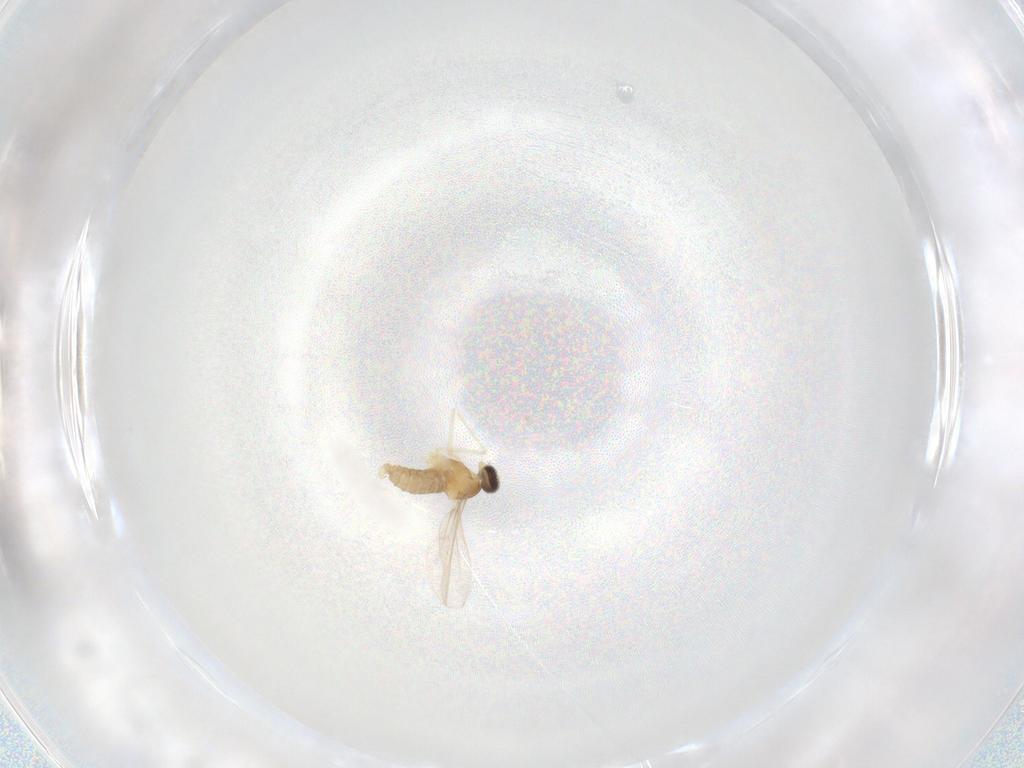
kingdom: Animalia
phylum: Arthropoda
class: Insecta
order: Diptera
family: Cecidomyiidae
